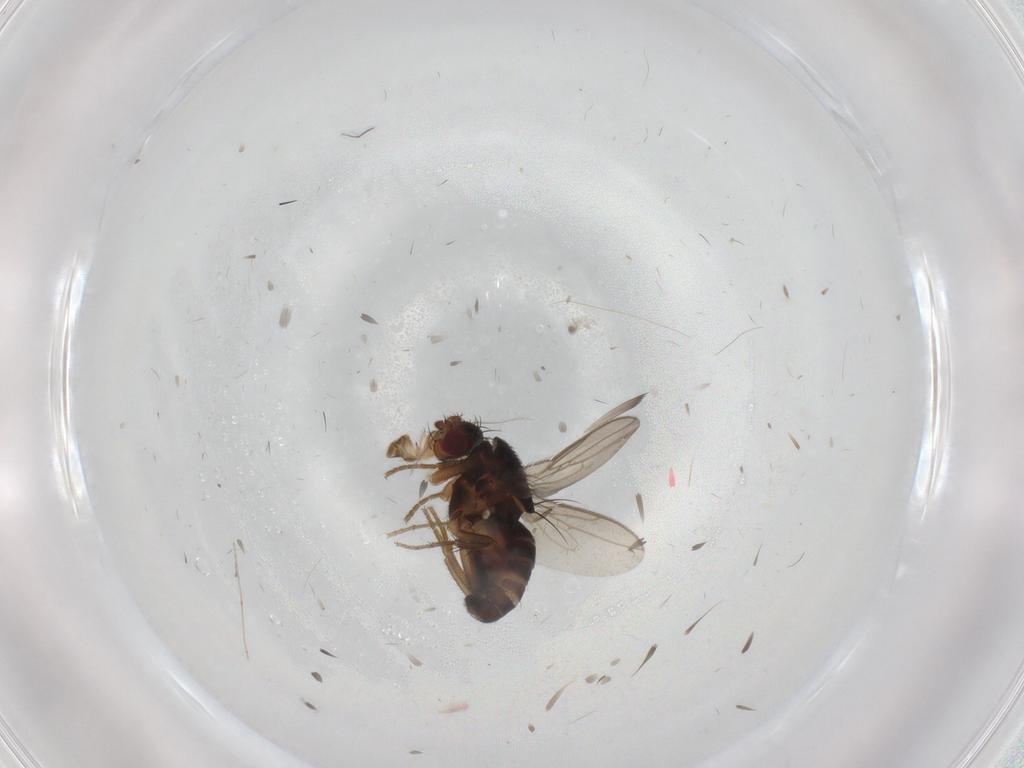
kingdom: Animalia
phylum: Arthropoda
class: Insecta
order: Diptera
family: Sphaeroceridae
